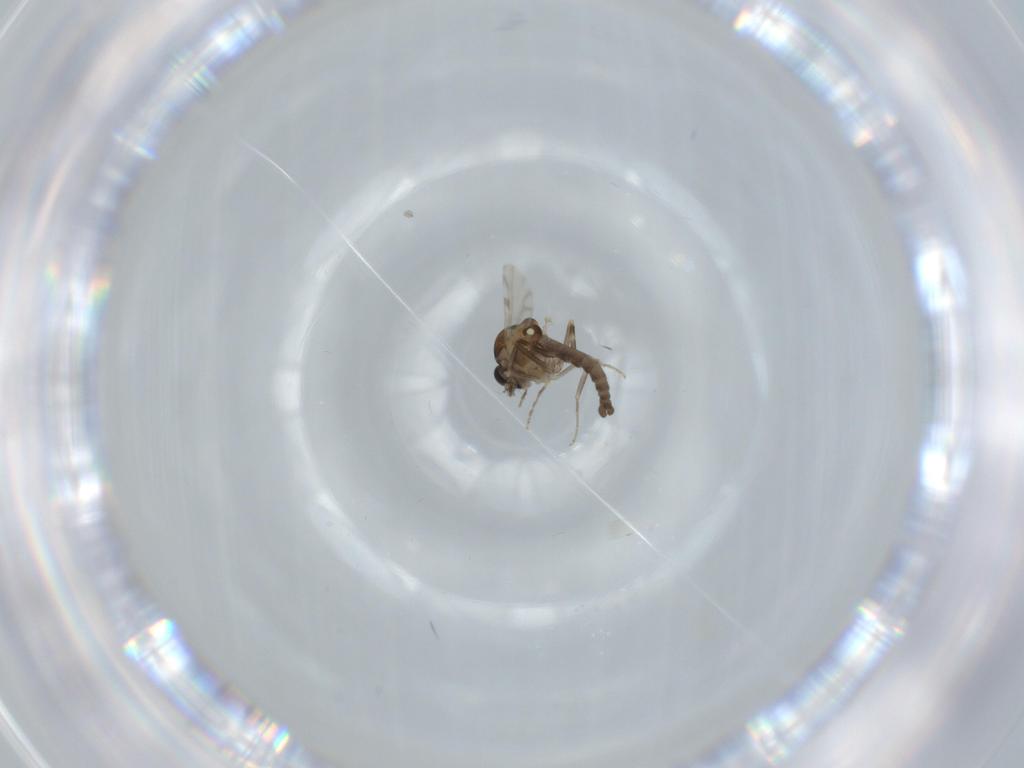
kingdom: Animalia
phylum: Arthropoda
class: Insecta
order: Diptera
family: Ceratopogonidae
